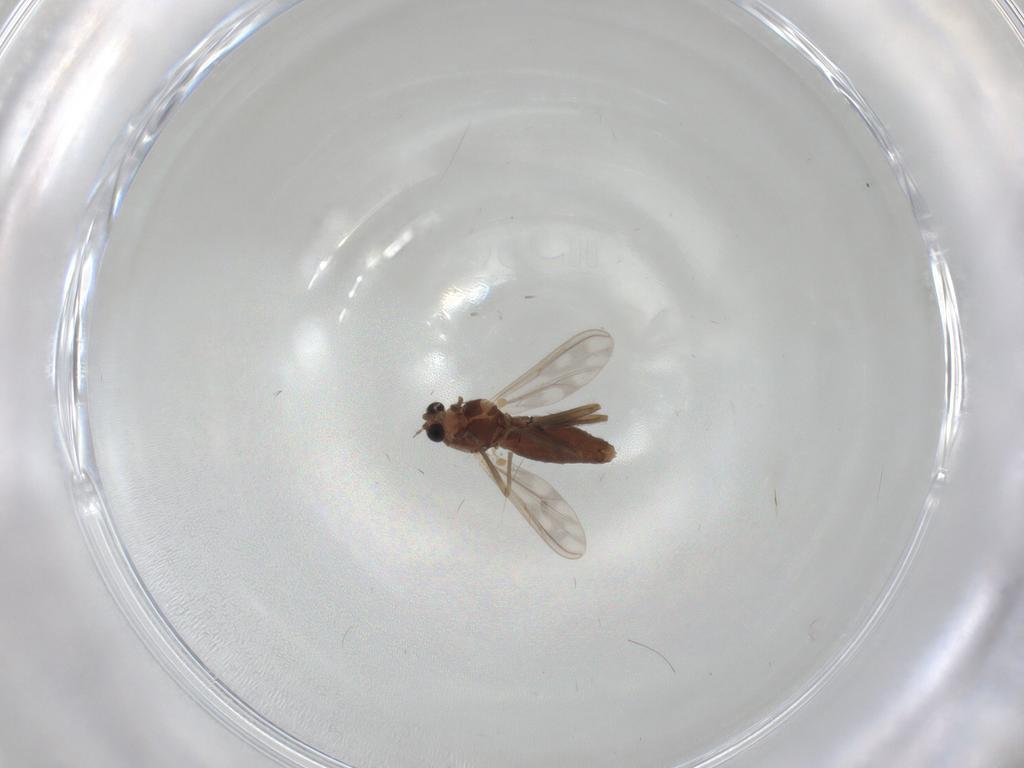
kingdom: Animalia
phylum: Arthropoda
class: Insecta
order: Diptera
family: Chironomidae
